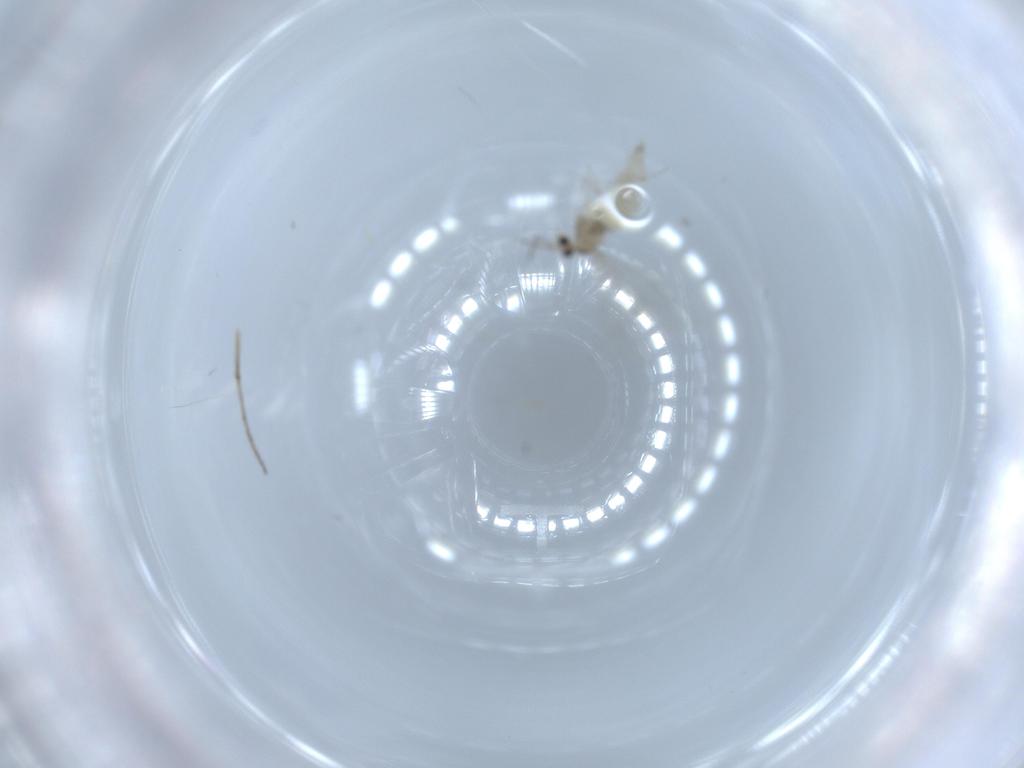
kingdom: Animalia
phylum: Arthropoda
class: Insecta
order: Diptera
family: Cecidomyiidae
